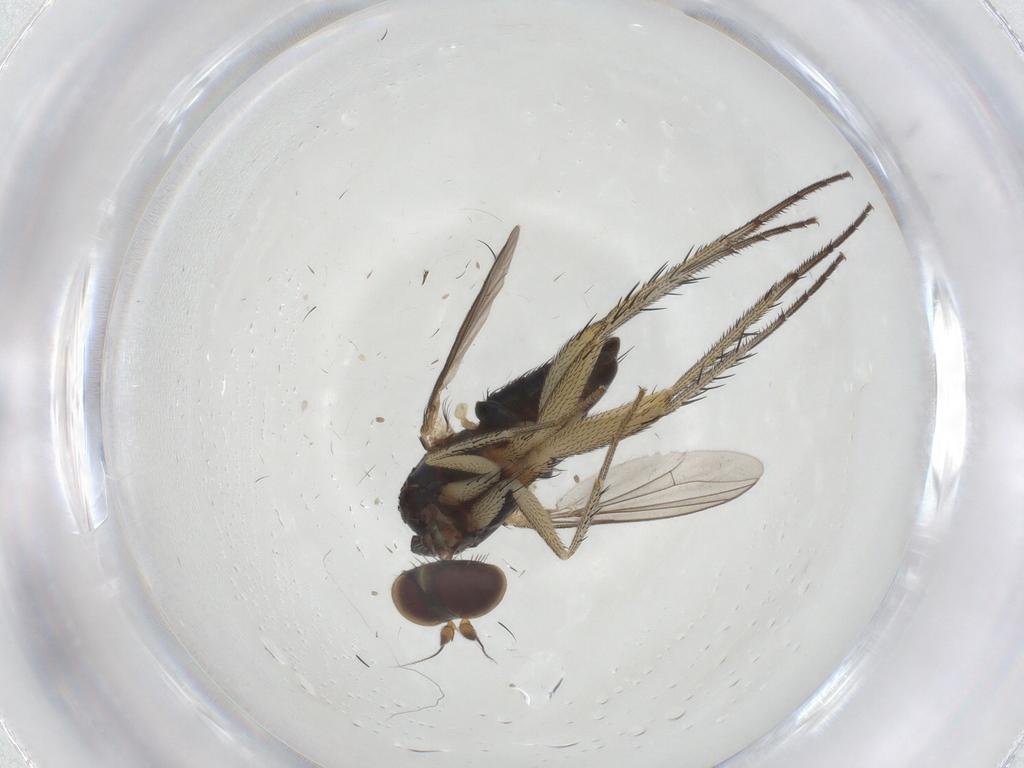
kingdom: Animalia
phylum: Arthropoda
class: Insecta
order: Diptera
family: Dolichopodidae
